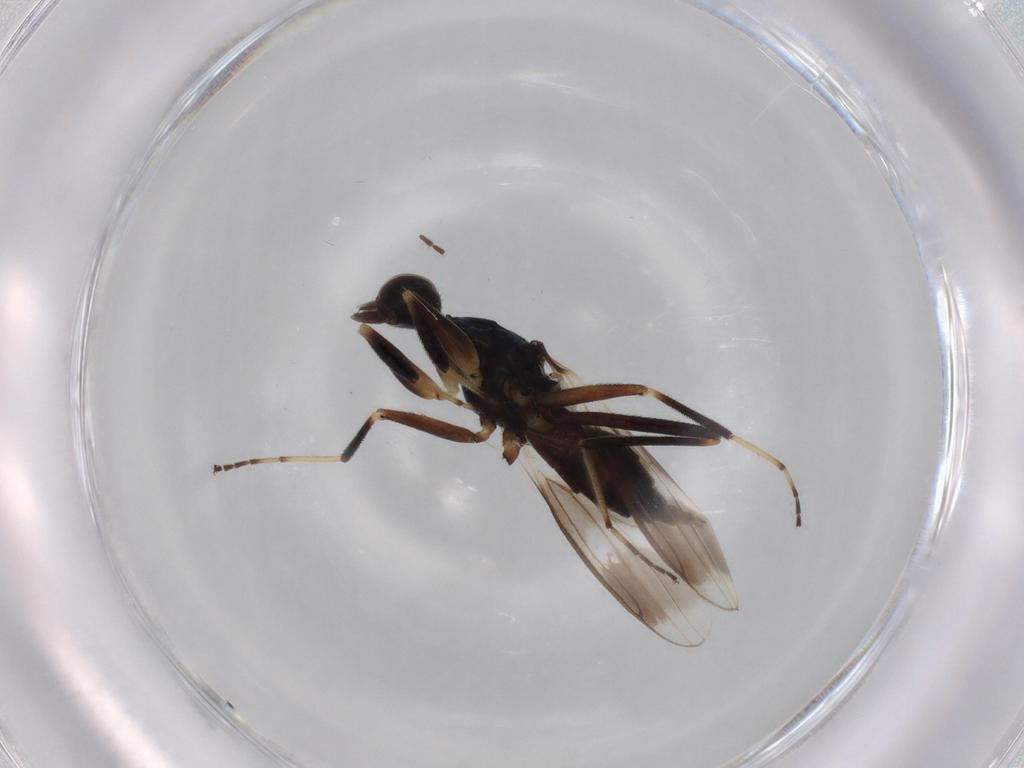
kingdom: Animalia
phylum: Arthropoda
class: Insecta
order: Diptera
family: Hybotidae
